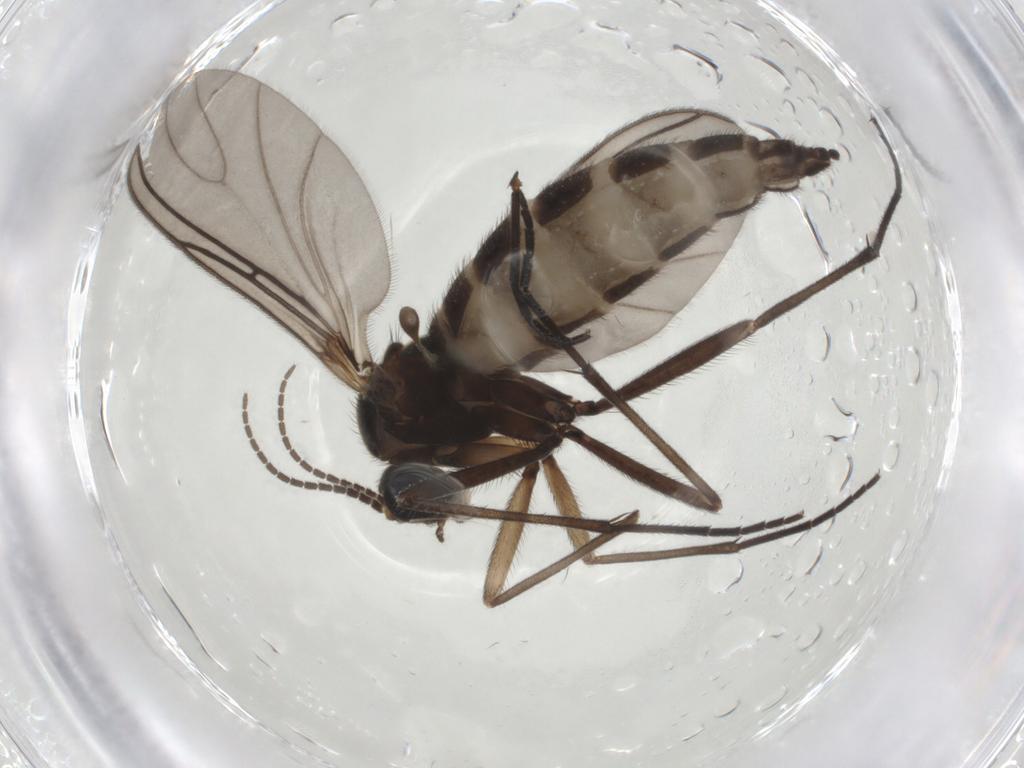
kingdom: Animalia
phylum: Arthropoda
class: Insecta
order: Diptera
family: Sciaridae
